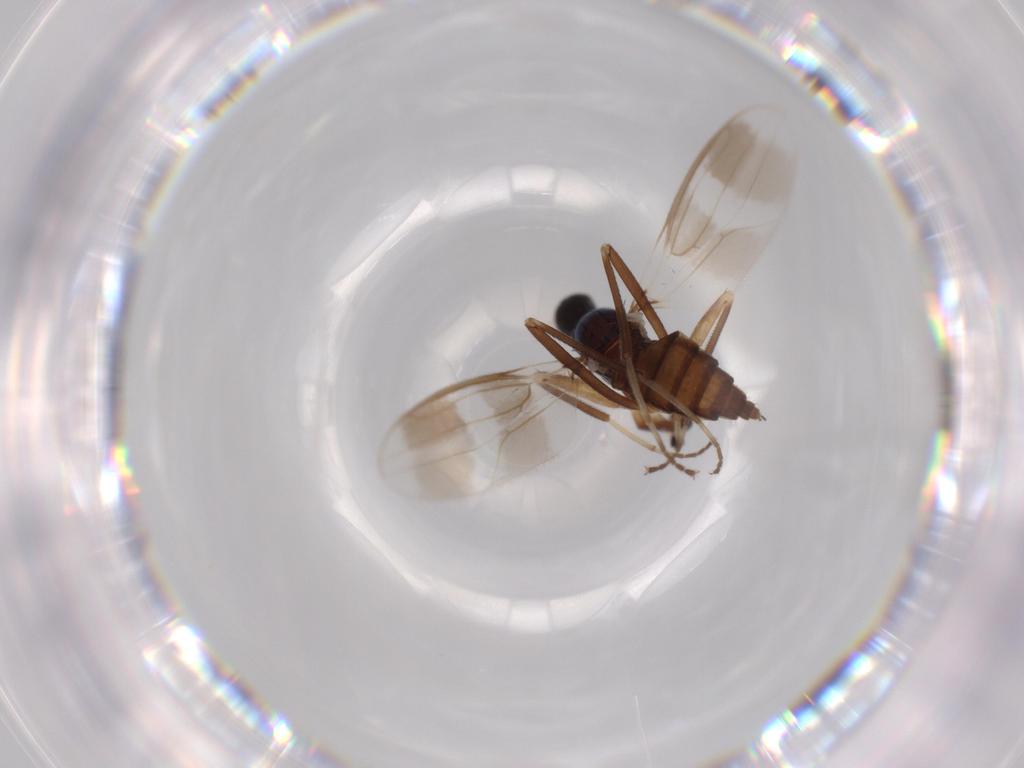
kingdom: Animalia
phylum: Arthropoda
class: Insecta
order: Diptera
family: Hybotidae
